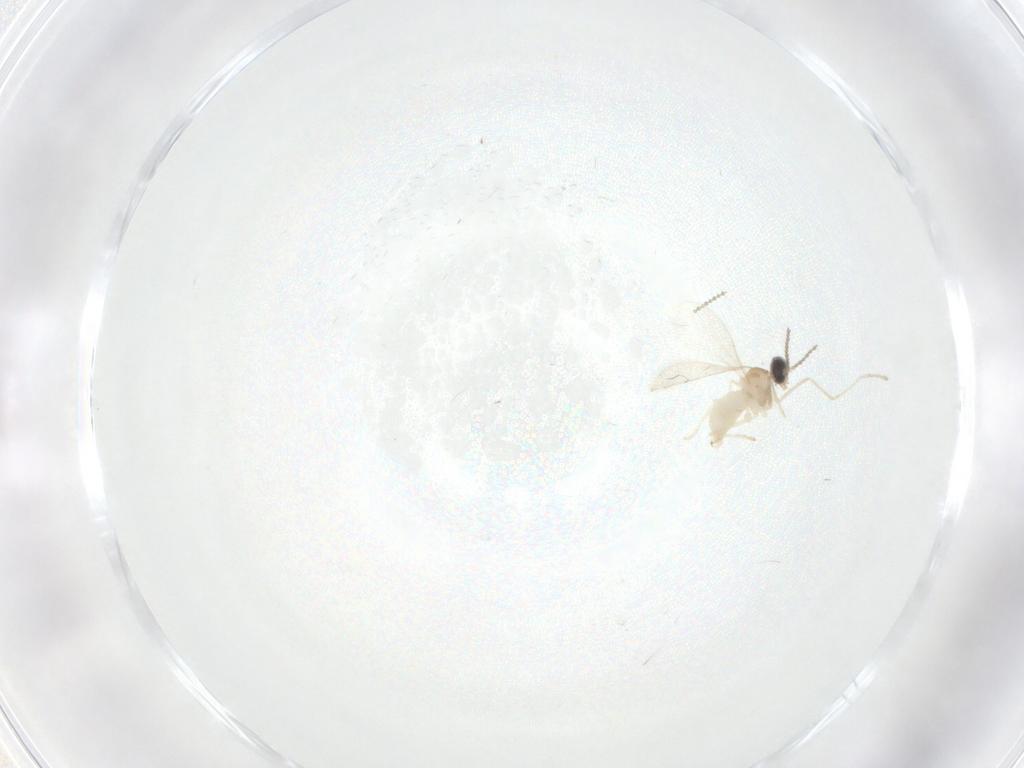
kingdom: Animalia
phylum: Arthropoda
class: Insecta
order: Diptera
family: Cecidomyiidae
